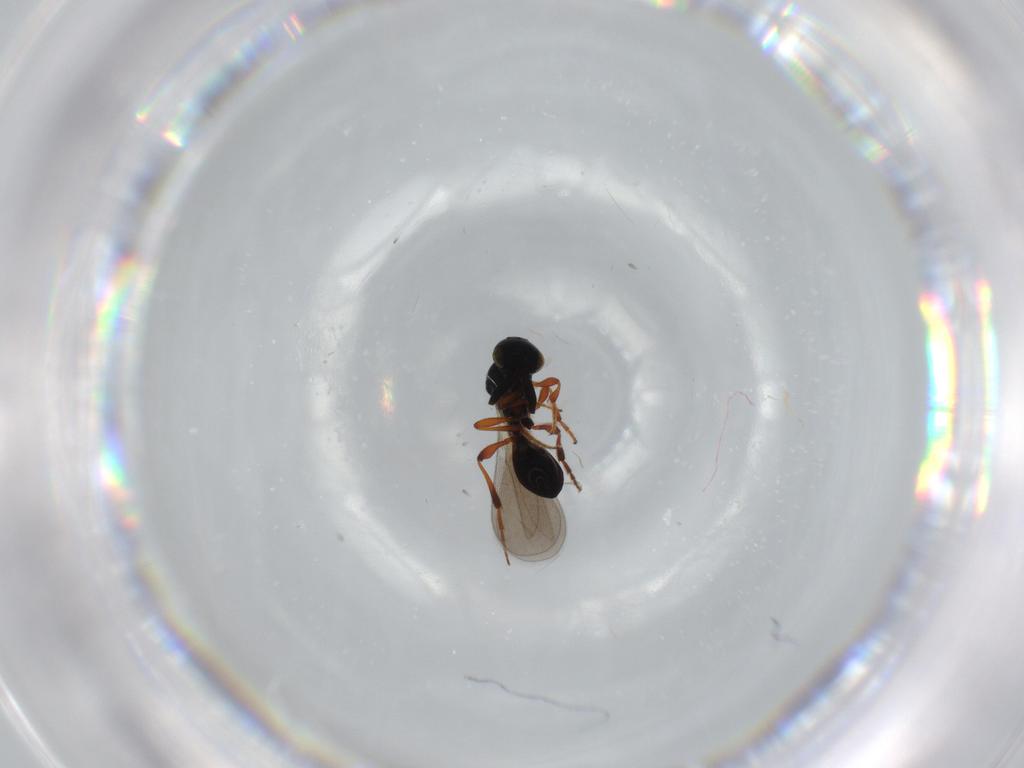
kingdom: Animalia
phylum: Arthropoda
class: Insecta
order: Hymenoptera
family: Platygastridae
